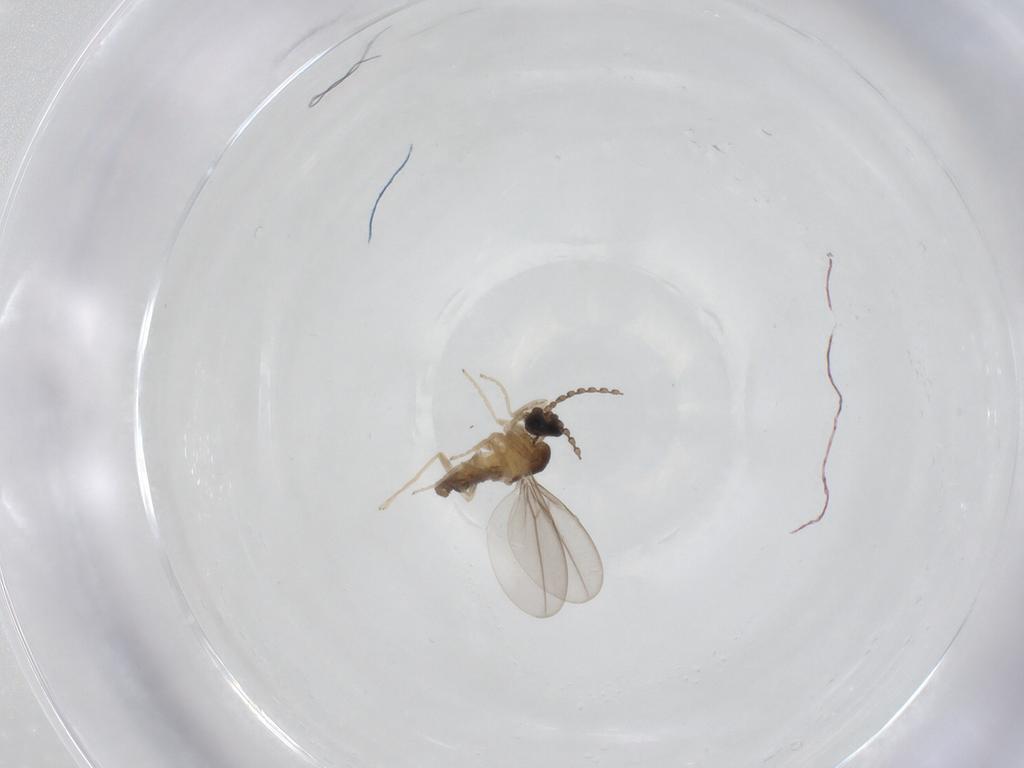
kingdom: Animalia
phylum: Arthropoda
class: Insecta
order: Diptera
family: Cecidomyiidae
